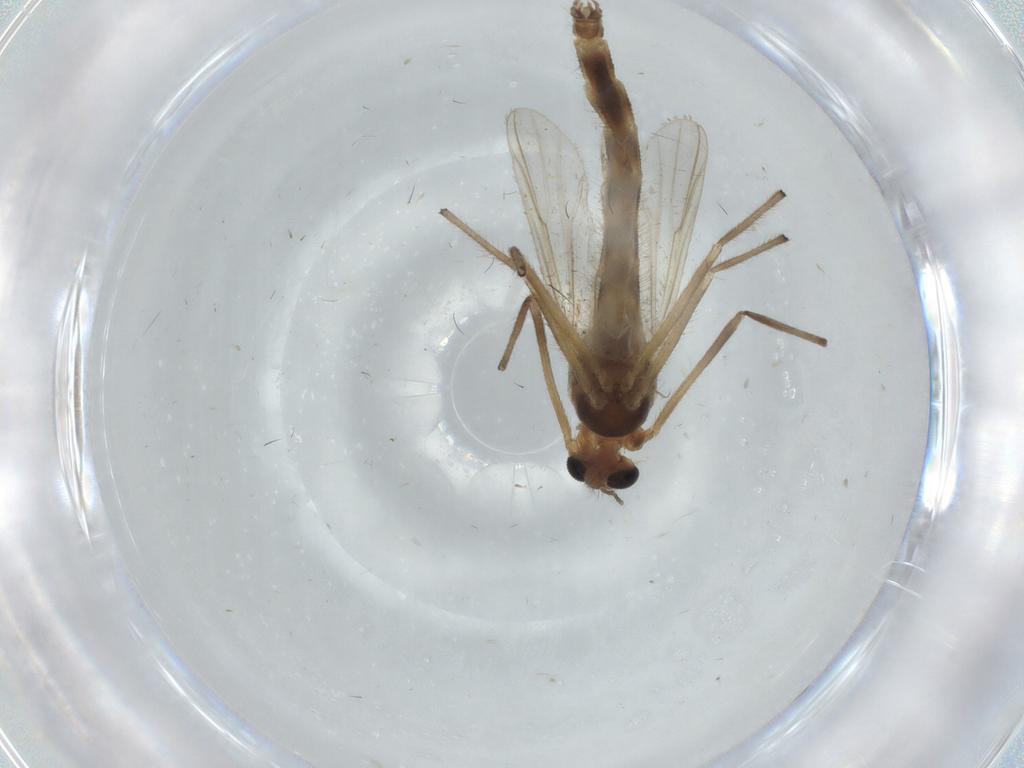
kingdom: Animalia
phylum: Arthropoda
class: Insecta
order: Diptera
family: Chironomidae
